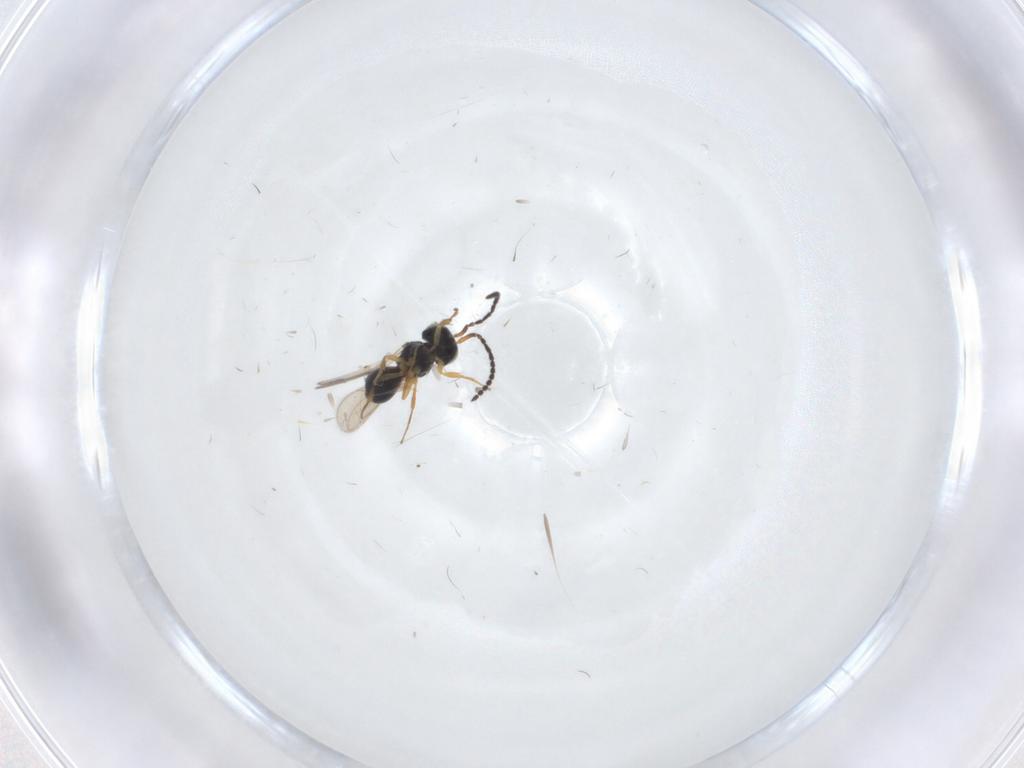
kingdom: Animalia
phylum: Arthropoda
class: Insecta
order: Hymenoptera
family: Scelionidae
